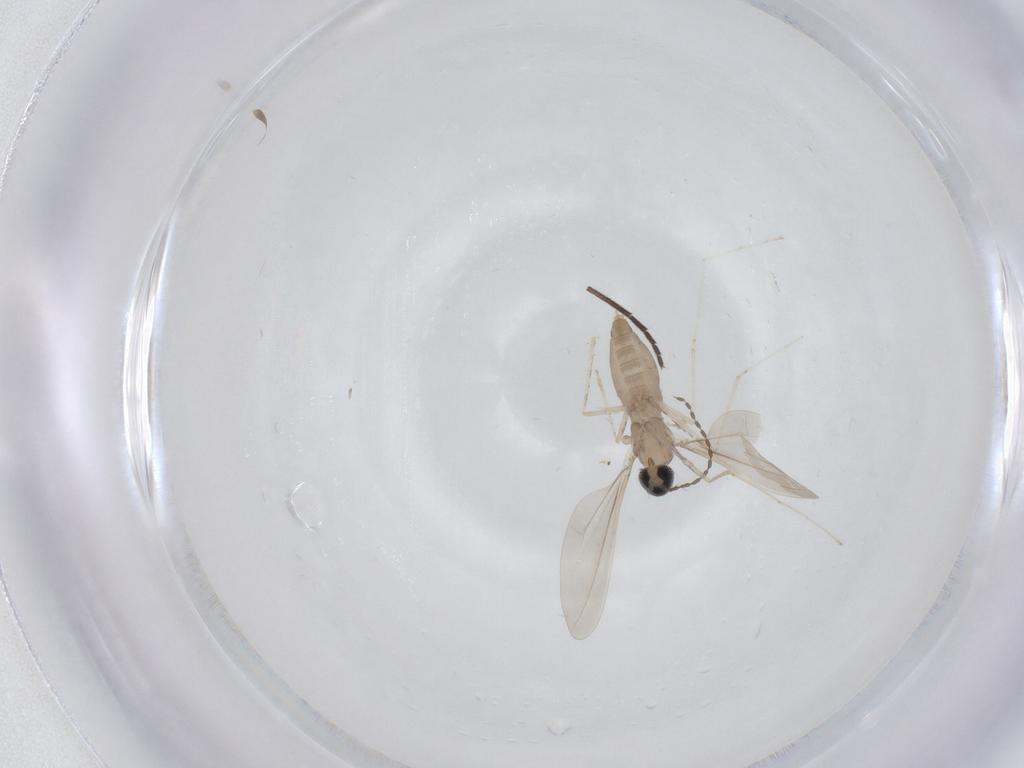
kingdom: Animalia
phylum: Arthropoda
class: Insecta
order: Diptera
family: Cecidomyiidae
